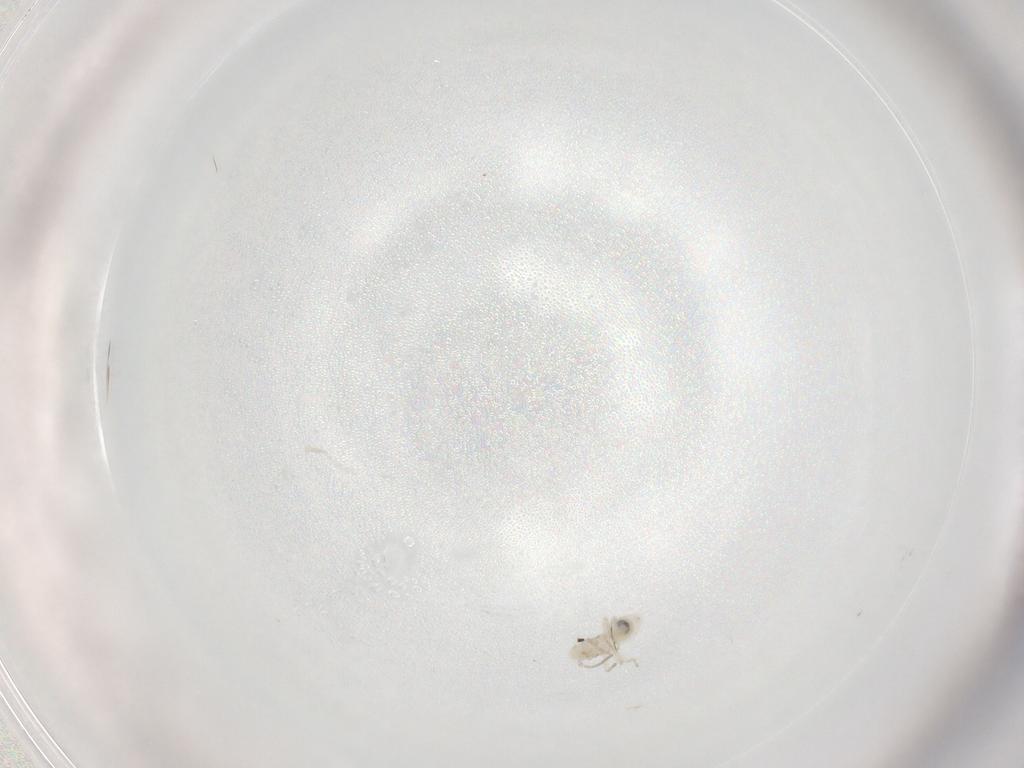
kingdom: Animalia
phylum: Arthropoda
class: Insecta
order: Psocodea
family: Caeciliusidae
